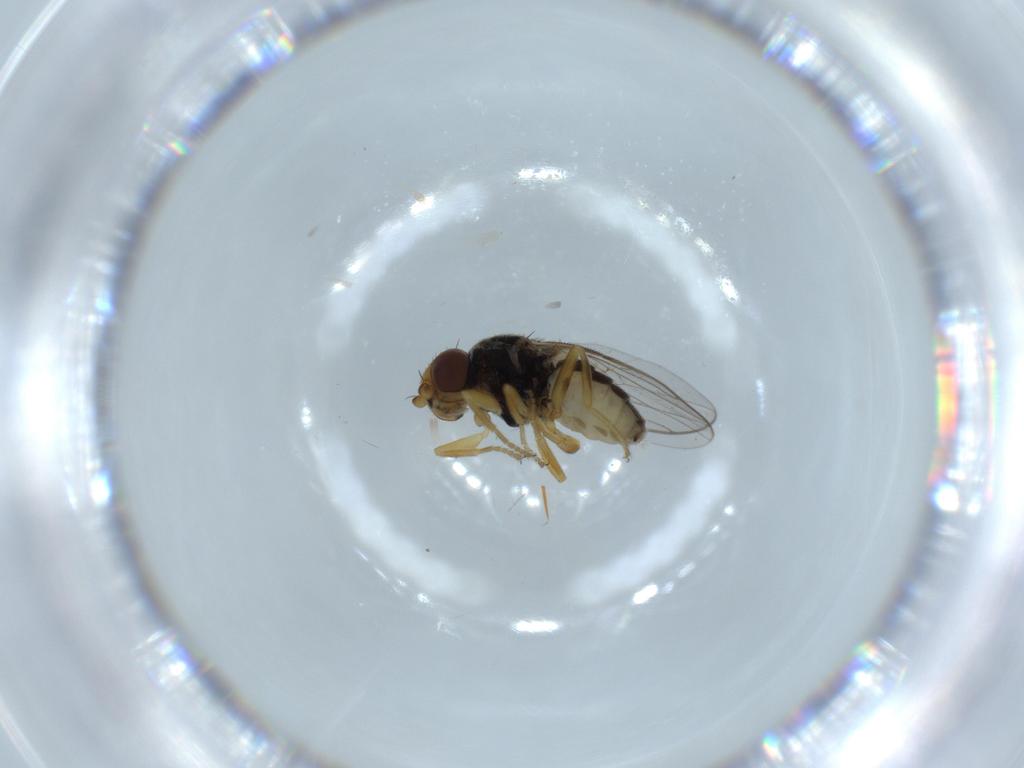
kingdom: Animalia
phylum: Arthropoda
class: Insecta
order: Diptera
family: Chloropidae
